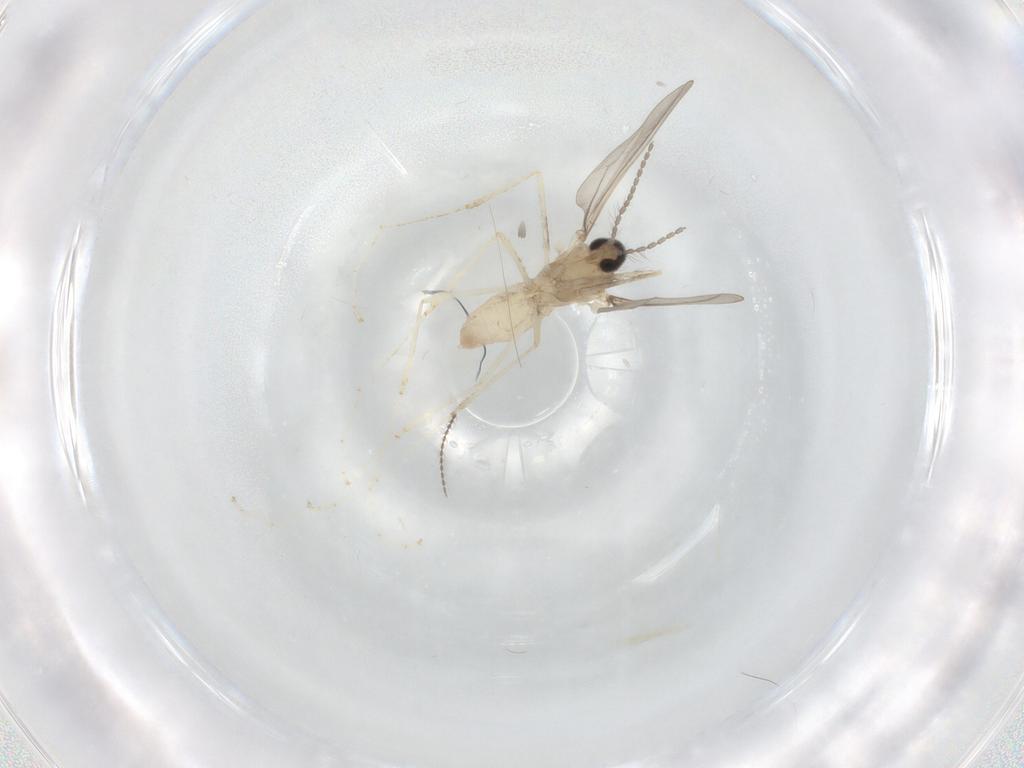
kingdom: Animalia
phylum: Arthropoda
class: Insecta
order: Diptera
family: Cecidomyiidae
